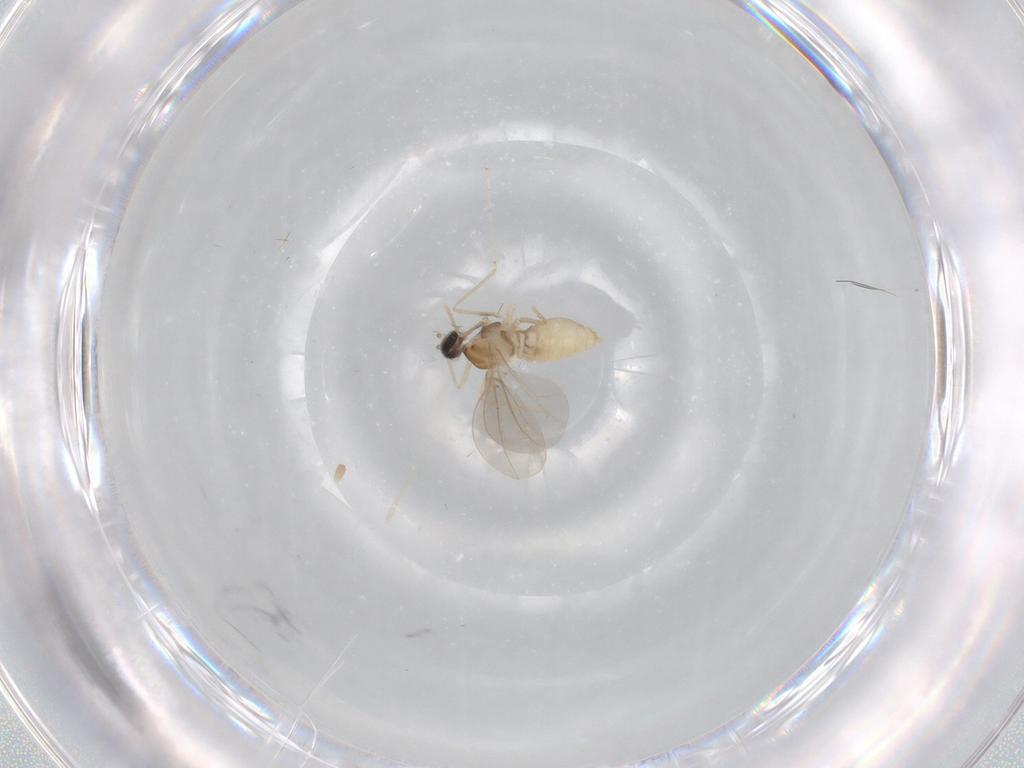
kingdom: Animalia
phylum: Arthropoda
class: Insecta
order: Diptera
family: Cecidomyiidae
